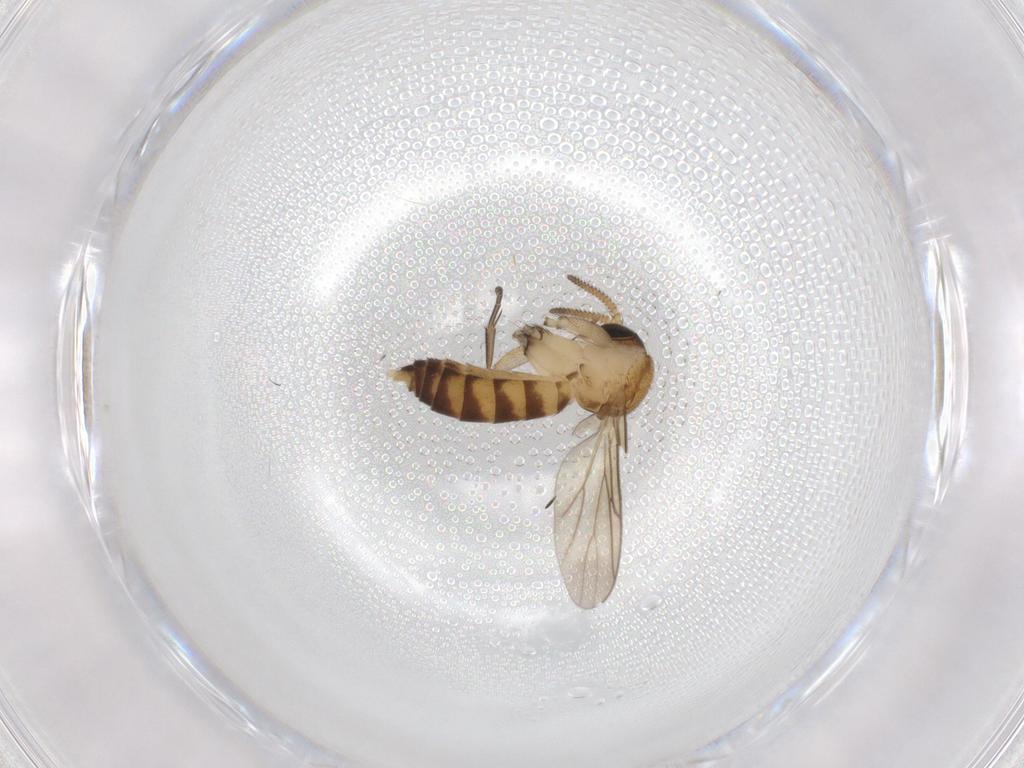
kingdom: Animalia
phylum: Arthropoda
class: Insecta
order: Diptera
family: Mycetophilidae
